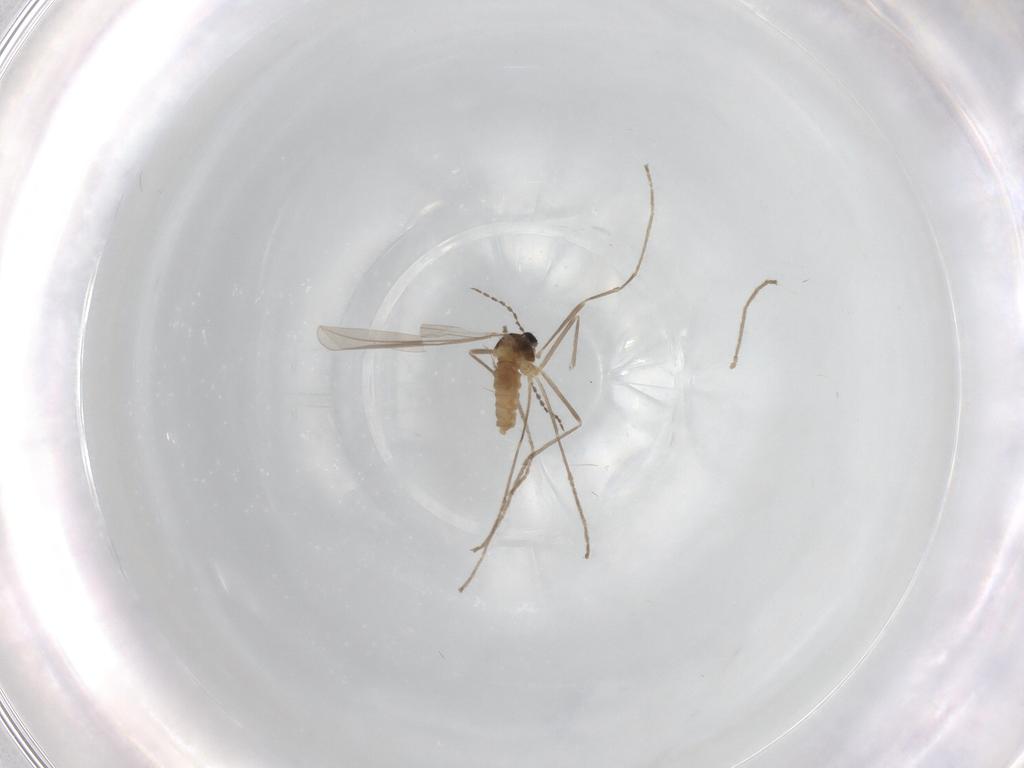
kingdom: Animalia
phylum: Arthropoda
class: Insecta
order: Diptera
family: Cecidomyiidae
